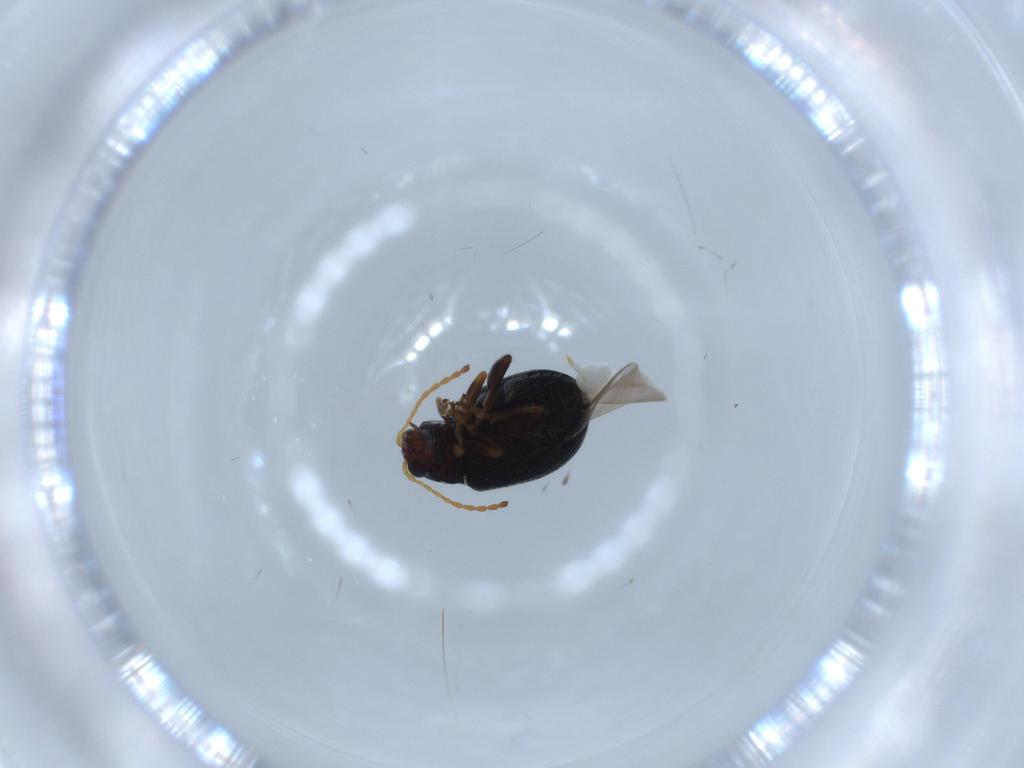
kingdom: Animalia
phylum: Arthropoda
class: Insecta
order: Coleoptera
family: Chrysomelidae
